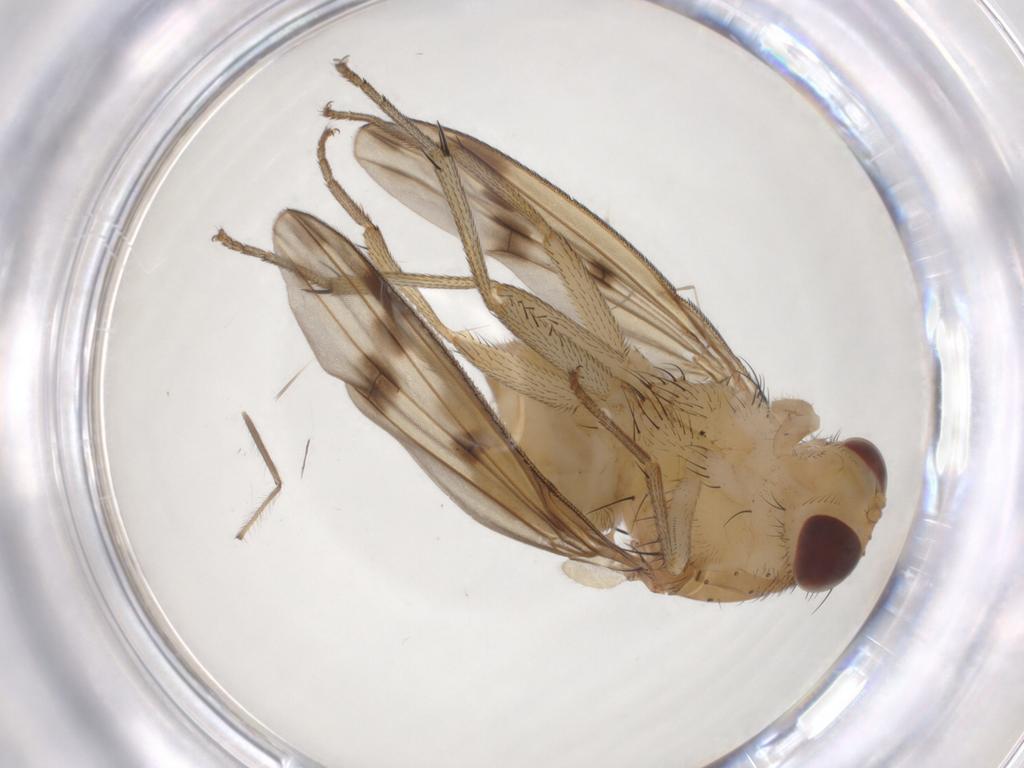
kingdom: Animalia
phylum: Arthropoda
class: Insecta
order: Diptera
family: Lauxaniidae
